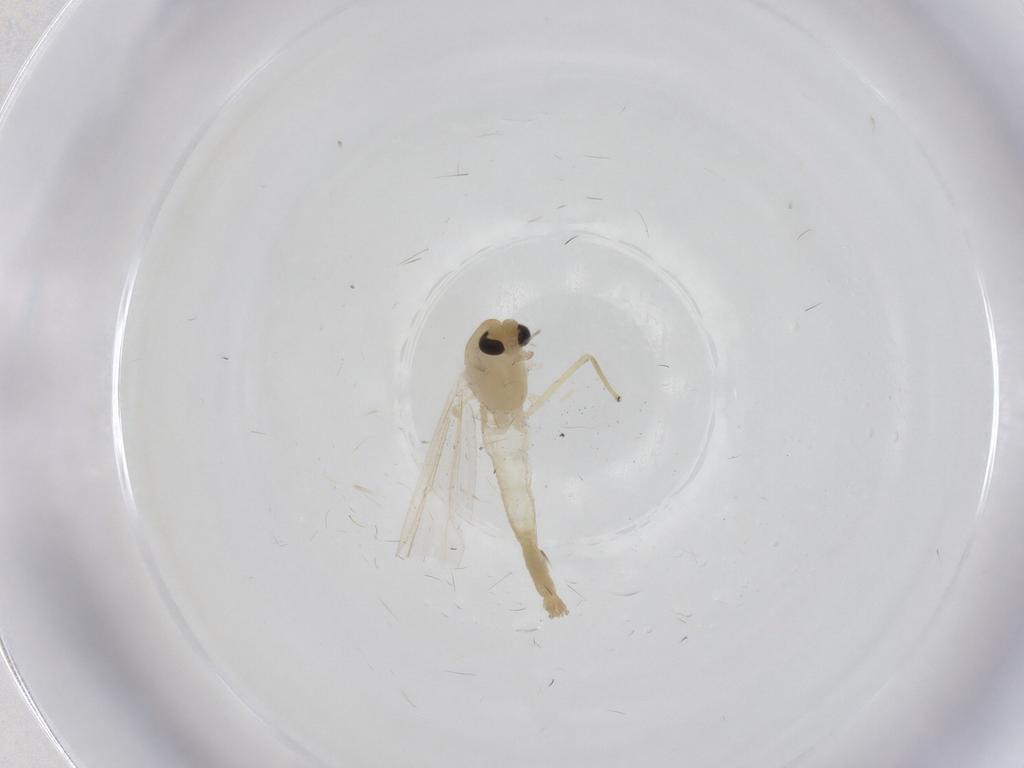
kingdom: Animalia
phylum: Arthropoda
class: Insecta
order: Diptera
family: Chironomidae
